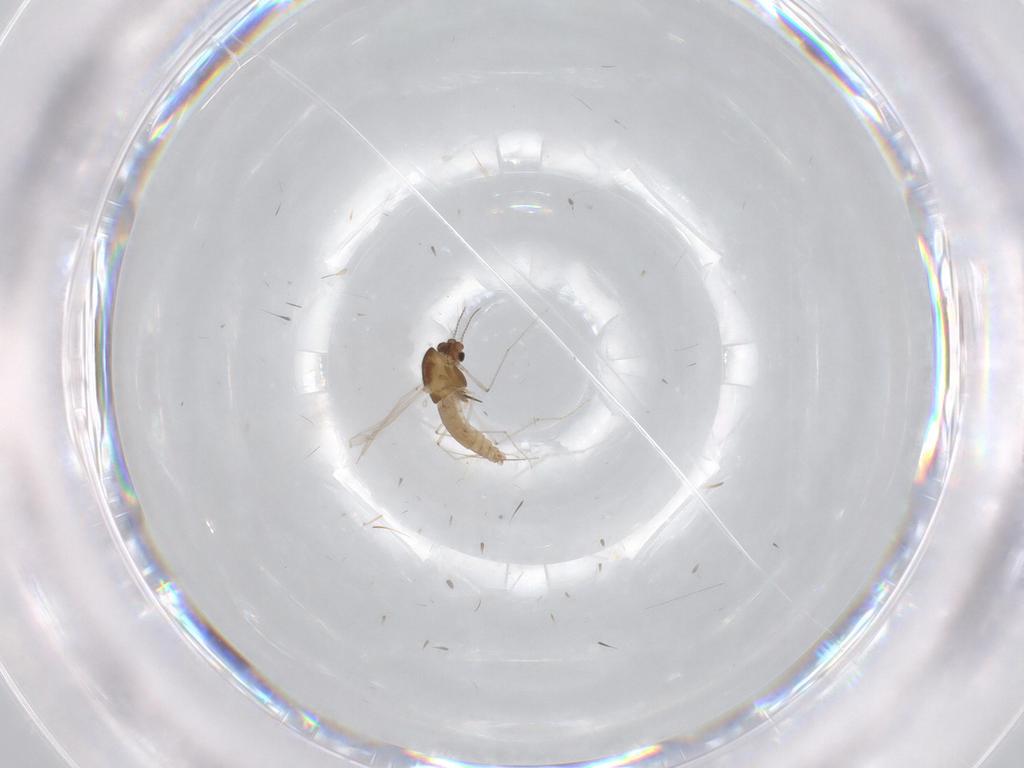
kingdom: Animalia
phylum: Arthropoda
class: Insecta
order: Diptera
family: Chironomidae
